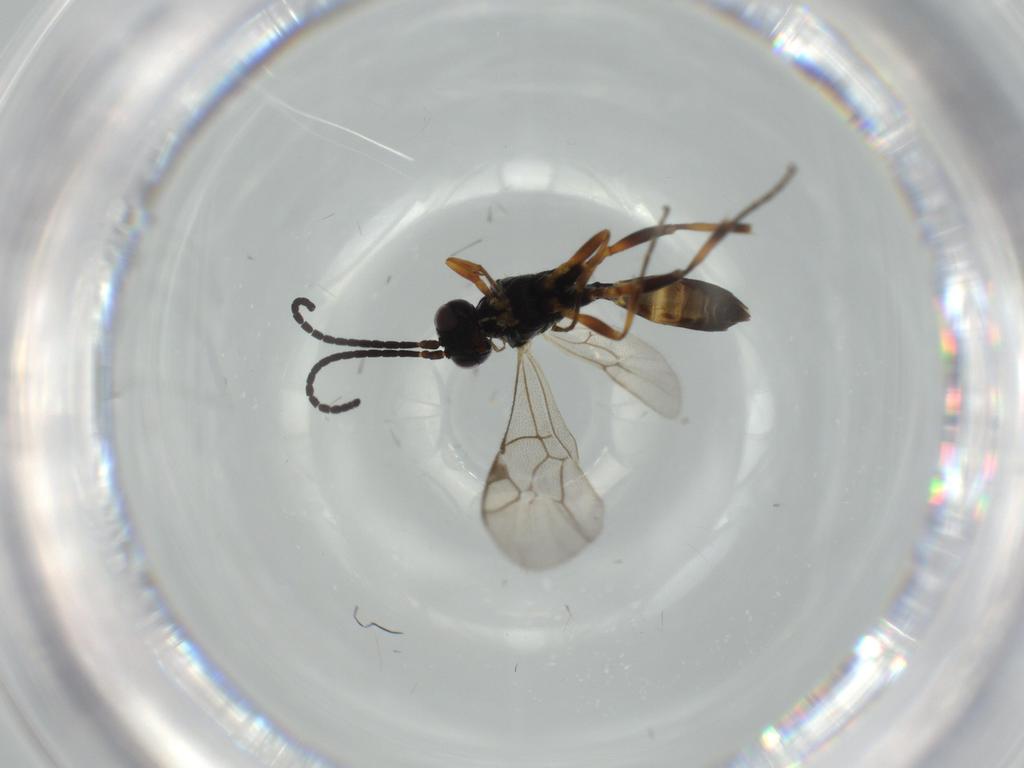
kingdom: Animalia
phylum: Arthropoda
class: Insecta
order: Hymenoptera
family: Ichneumonidae
